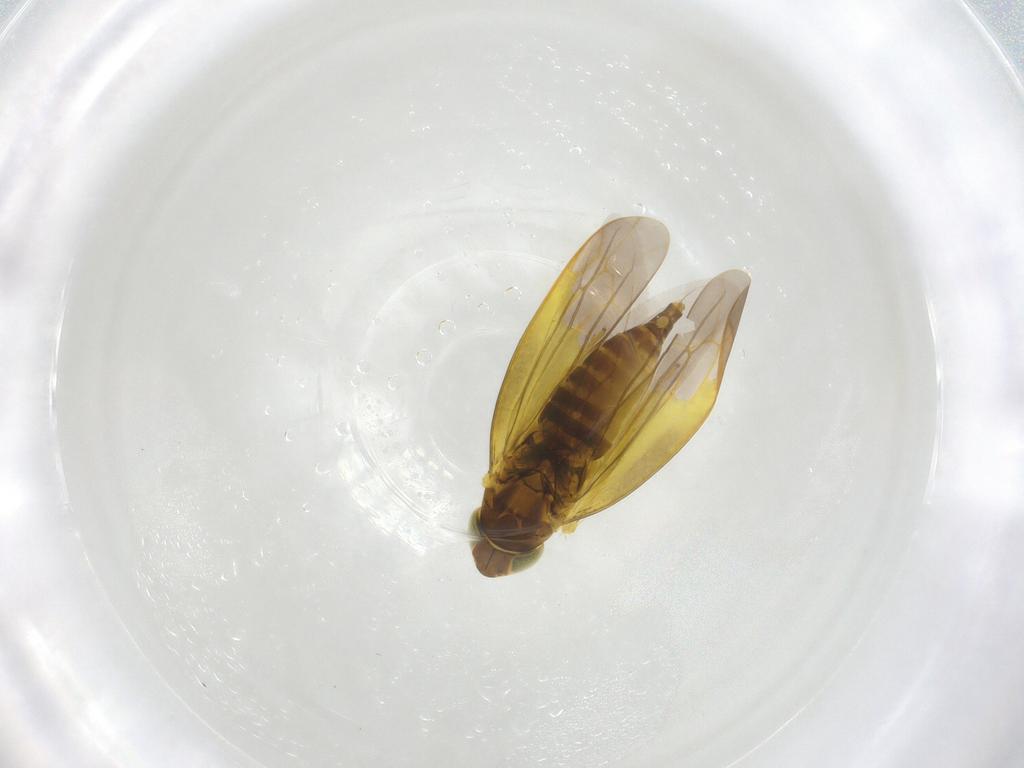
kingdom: Animalia
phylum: Arthropoda
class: Insecta
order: Hemiptera
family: Cicadellidae
